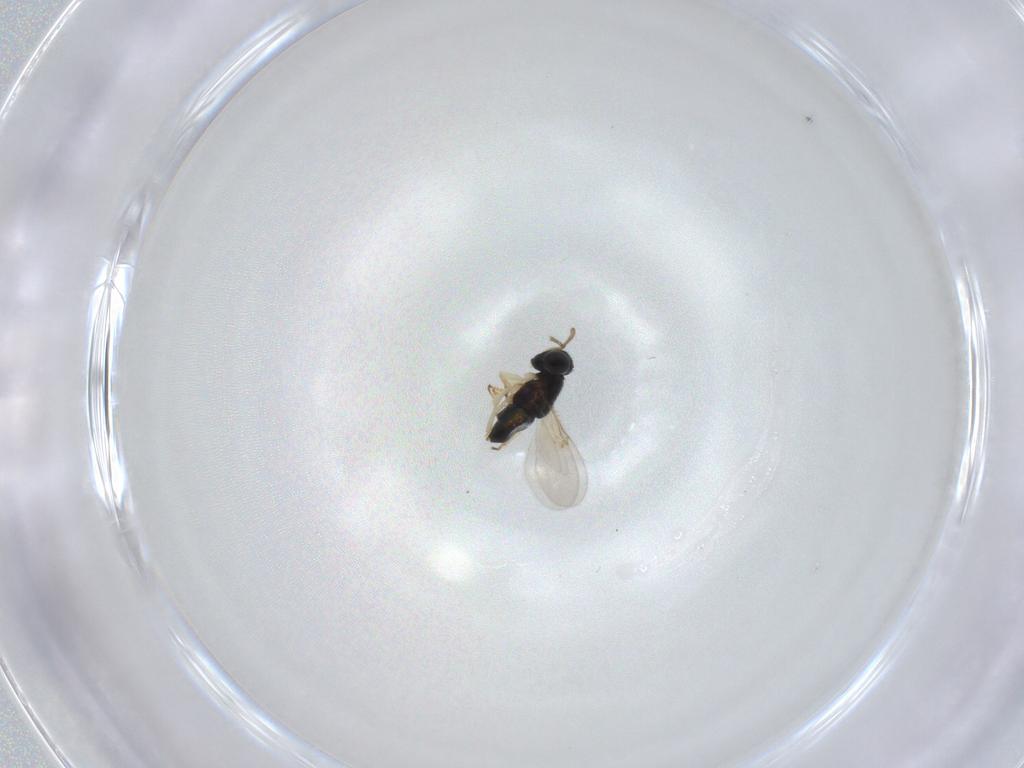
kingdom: Animalia
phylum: Arthropoda
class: Insecta
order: Hymenoptera
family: Encyrtidae
